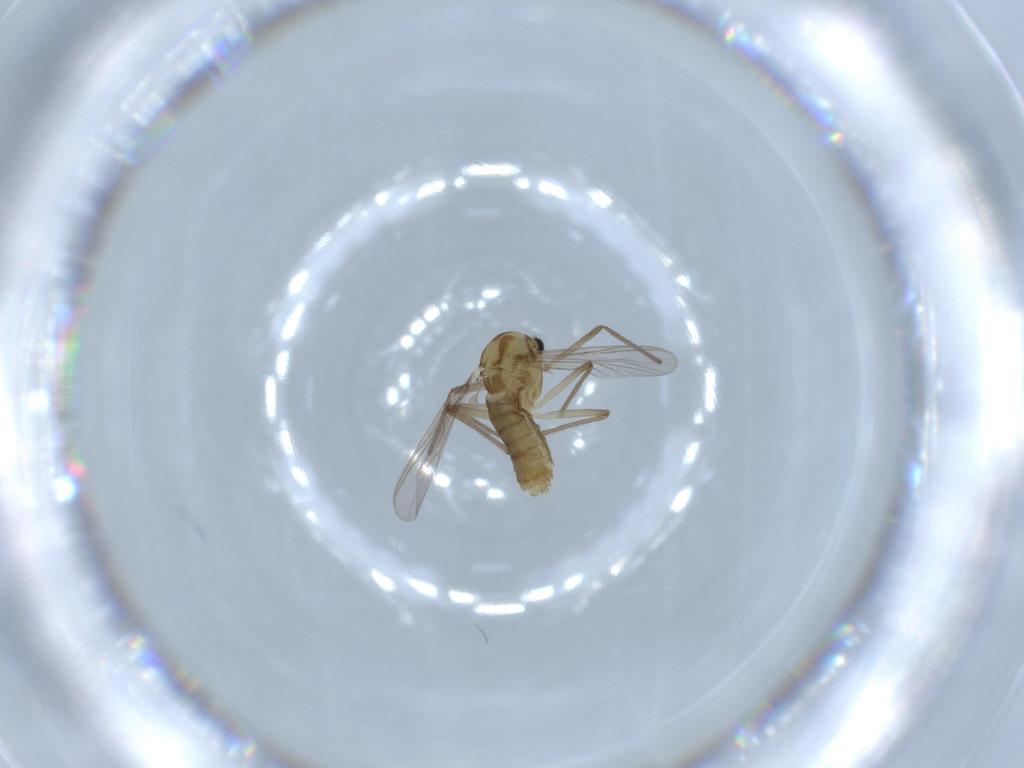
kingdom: Animalia
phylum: Arthropoda
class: Insecta
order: Diptera
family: Chironomidae
